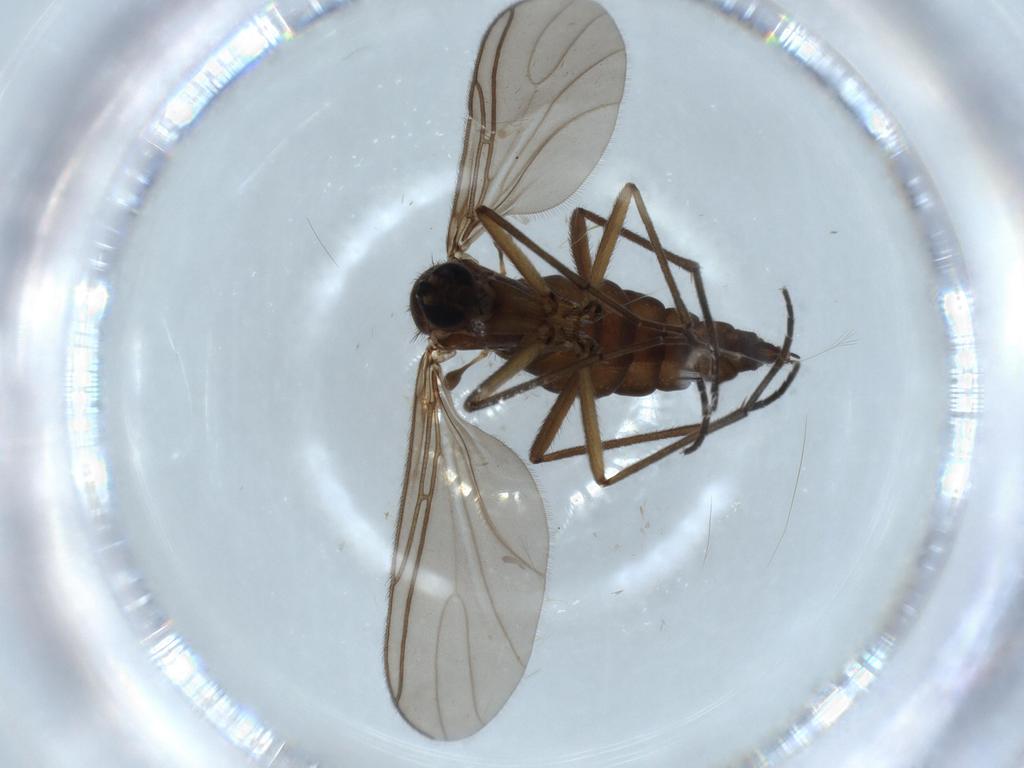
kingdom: Animalia
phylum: Arthropoda
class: Insecta
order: Diptera
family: Sciaridae
